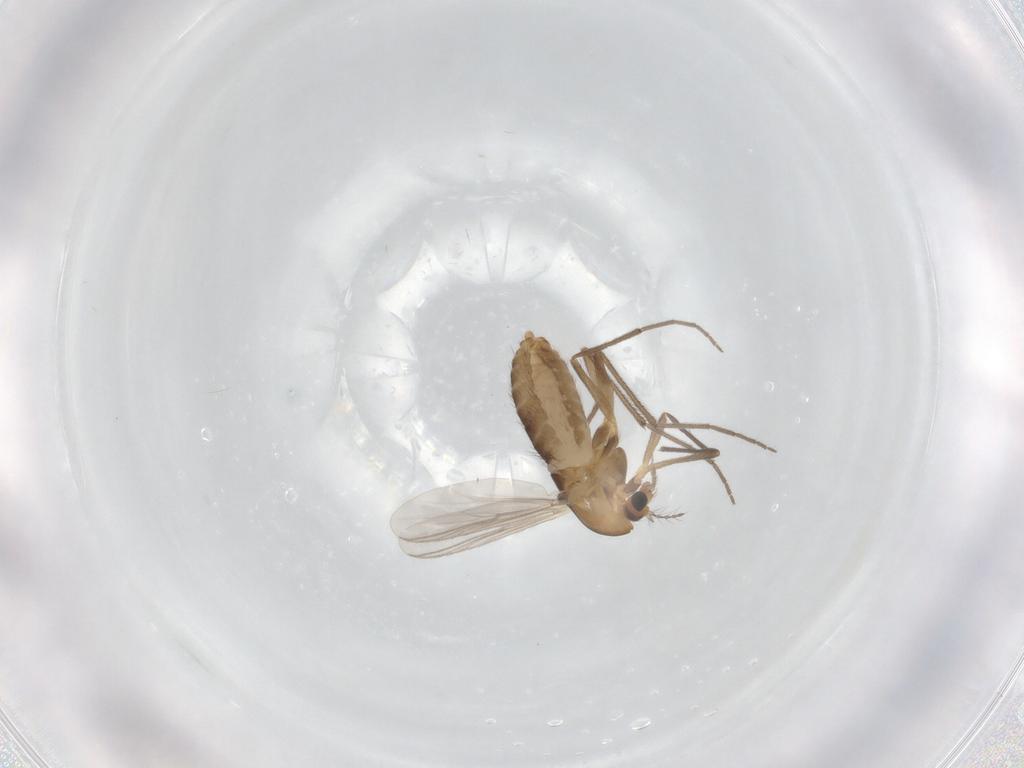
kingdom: Animalia
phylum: Arthropoda
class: Insecta
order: Diptera
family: Chironomidae
